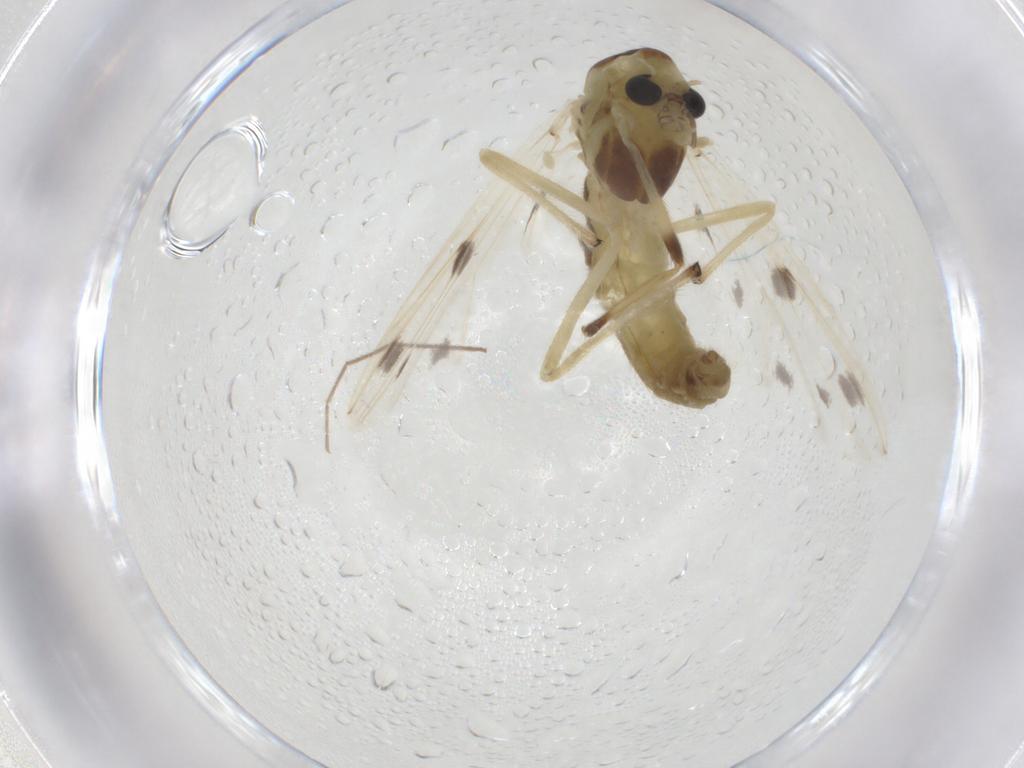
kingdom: Animalia
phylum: Arthropoda
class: Insecta
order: Diptera
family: Chironomidae
